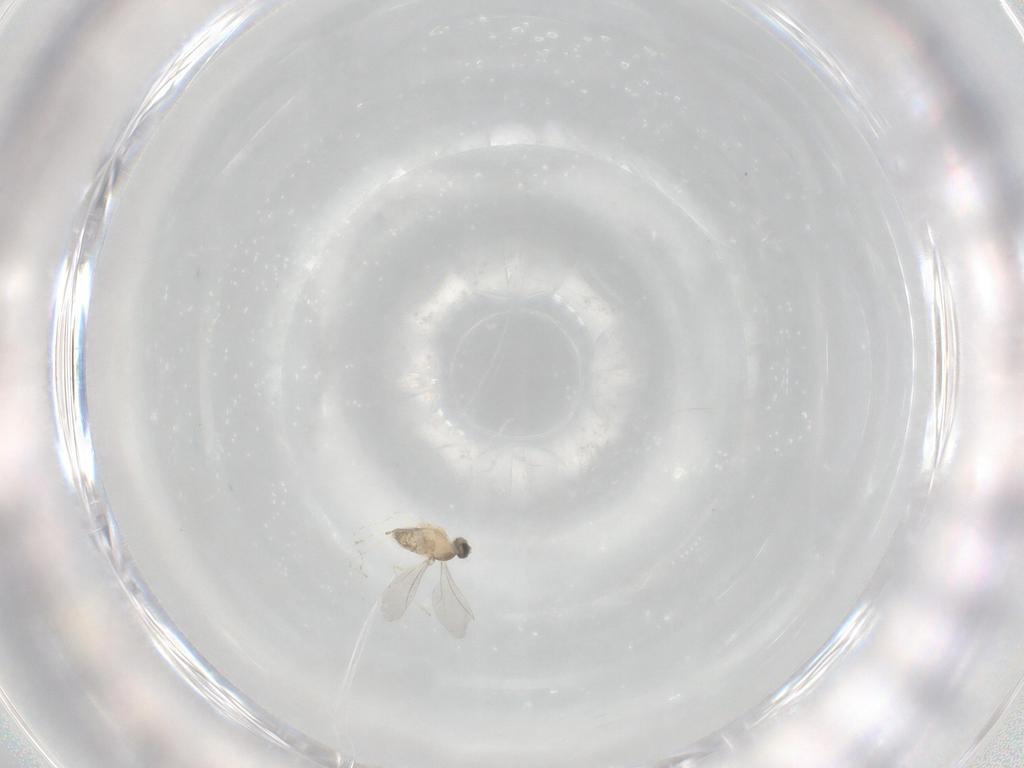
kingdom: Animalia
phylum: Arthropoda
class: Insecta
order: Diptera
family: Cecidomyiidae
